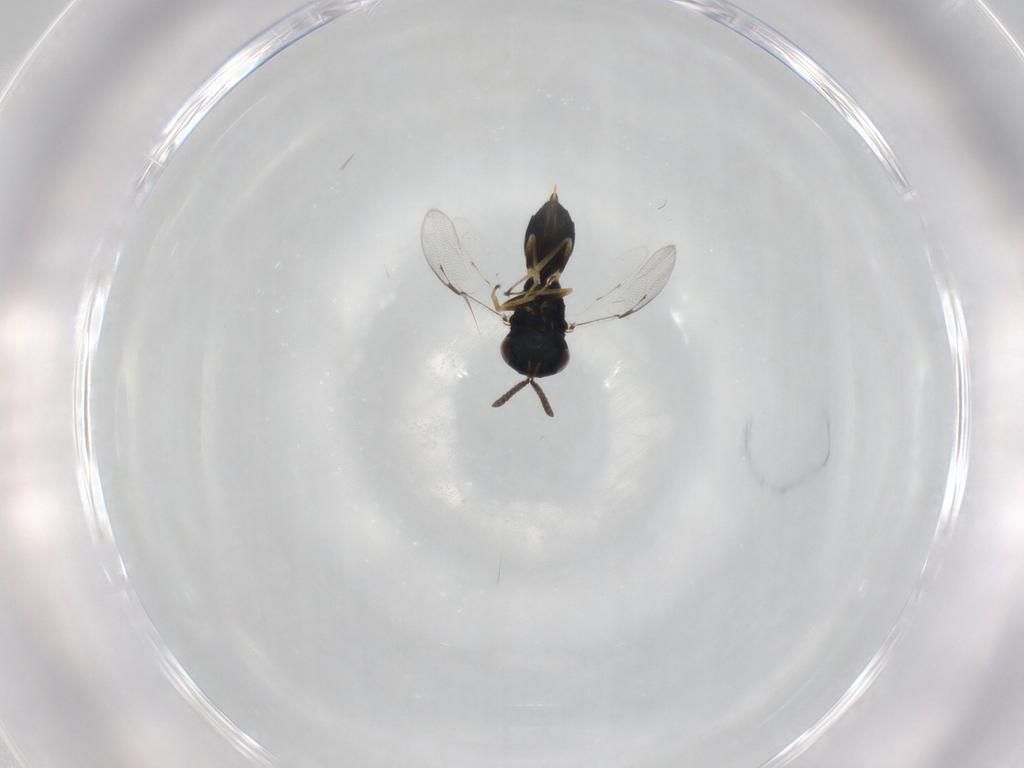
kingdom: Animalia
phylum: Arthropoda
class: Insecta
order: Hymenoptera
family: Pteromalidae
